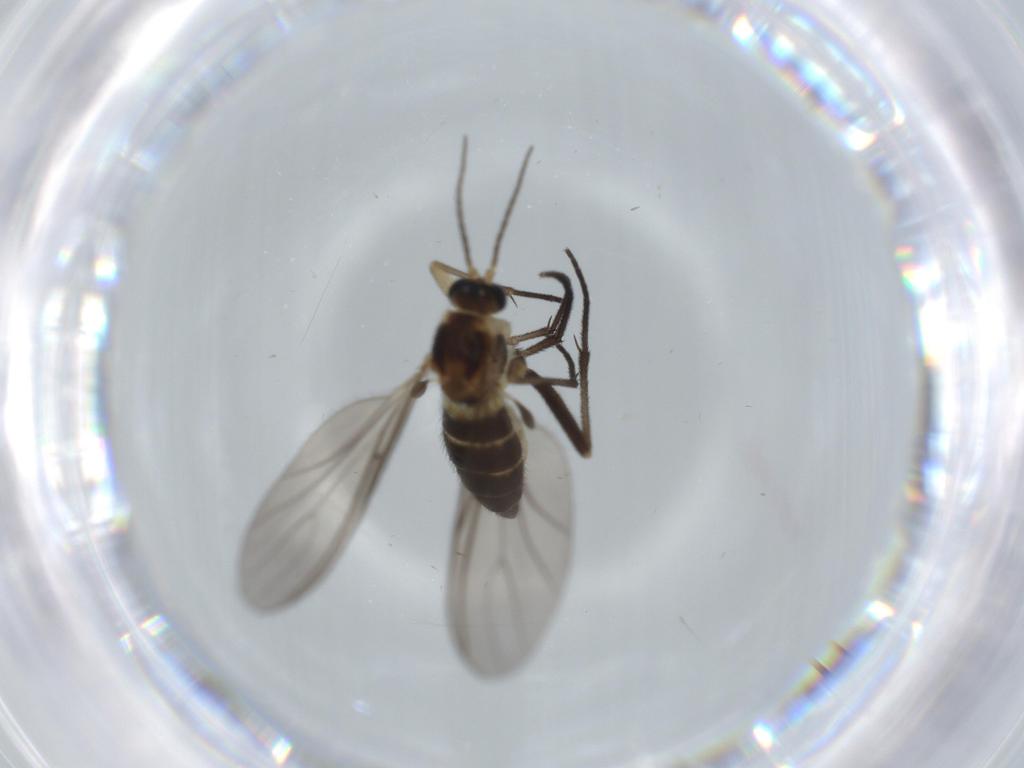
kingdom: Animalia
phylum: Arthropoda
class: Insecta
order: Diptera
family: Sciaridae
